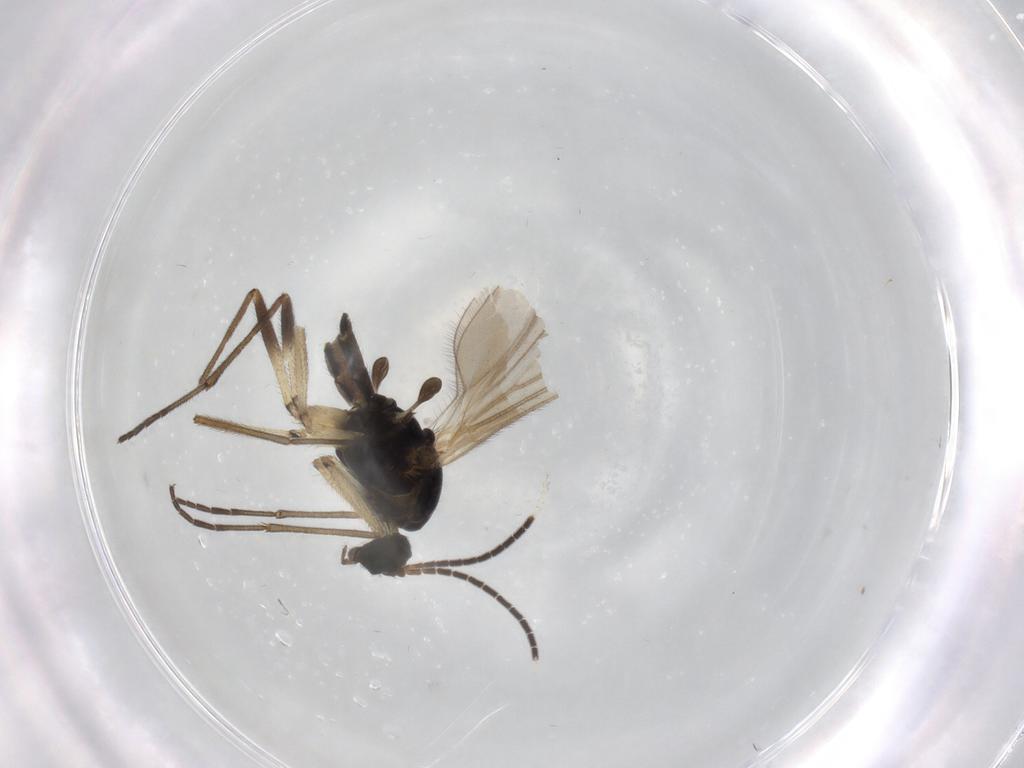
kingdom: Animalia
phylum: Arthropoda
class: Insecta
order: Diptera
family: Sciaridae
